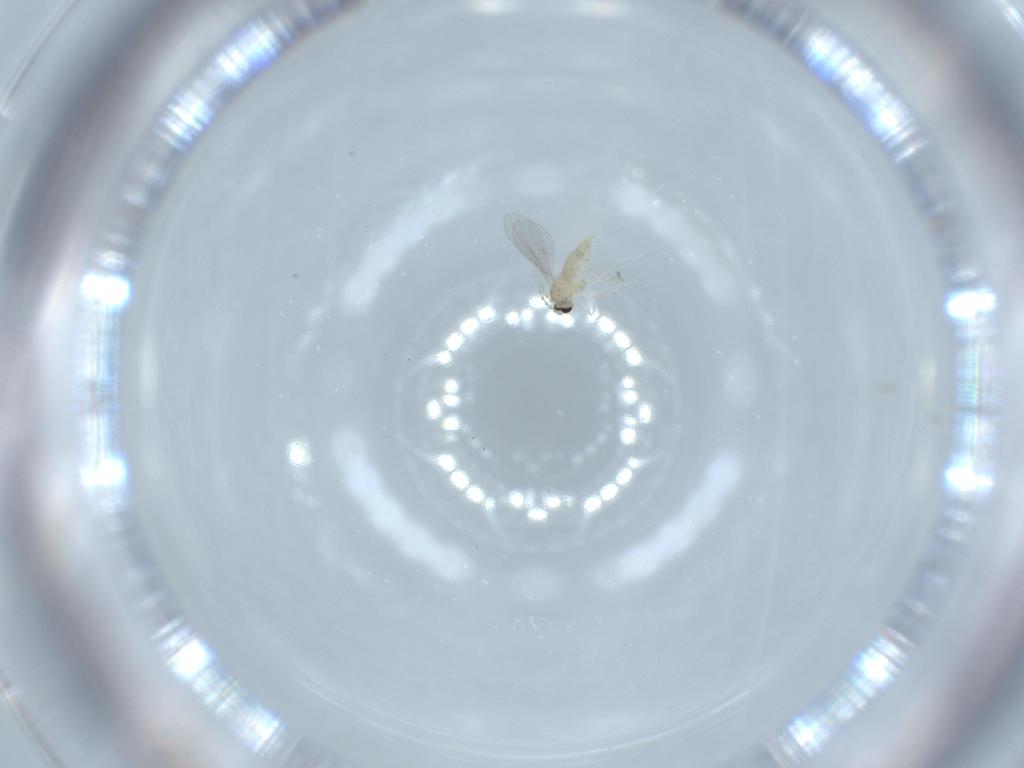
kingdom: Animalia
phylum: Arthropoda
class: Insecta
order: Diptera
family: Cecidomyiidae
